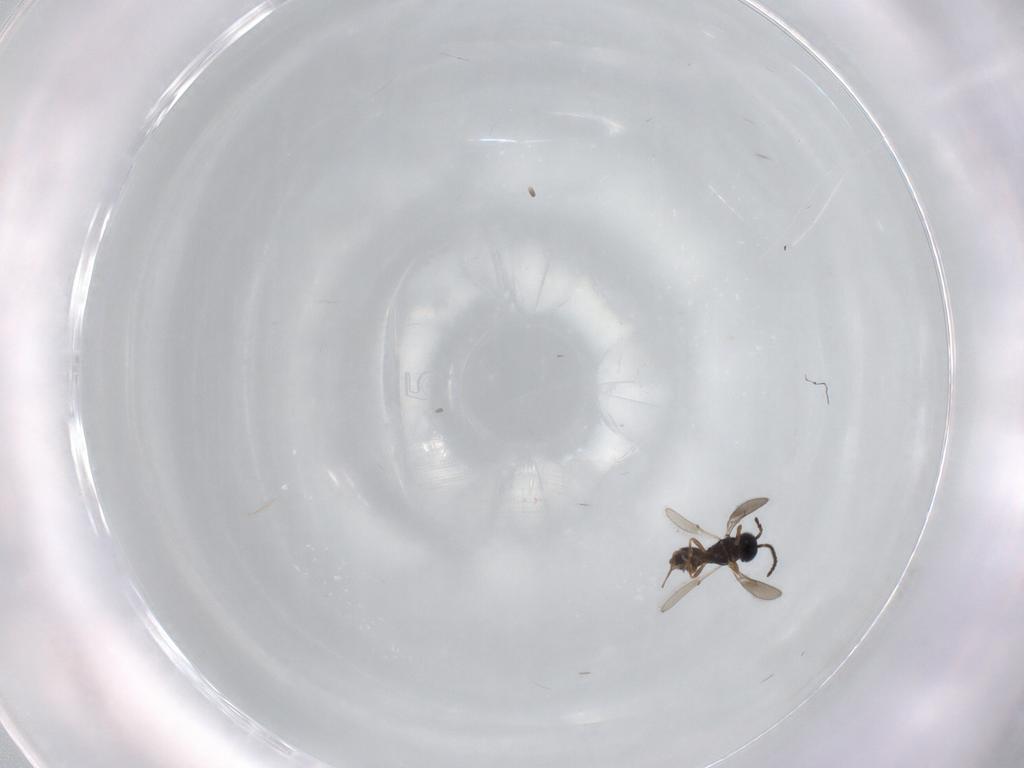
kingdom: Animalia
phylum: Arthropoda
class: Insecta
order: Hymenoptera
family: Scelionidae
